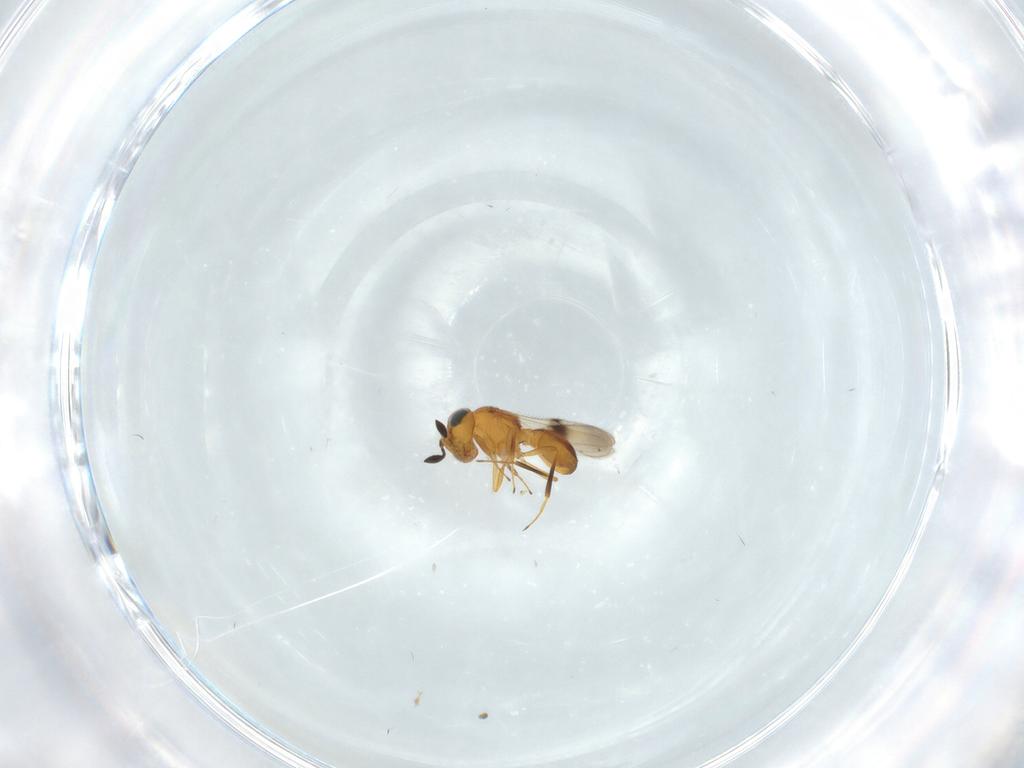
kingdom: Animalia
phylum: Arthropoda
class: Insecta
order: Hymenoptera
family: Scelionidae
